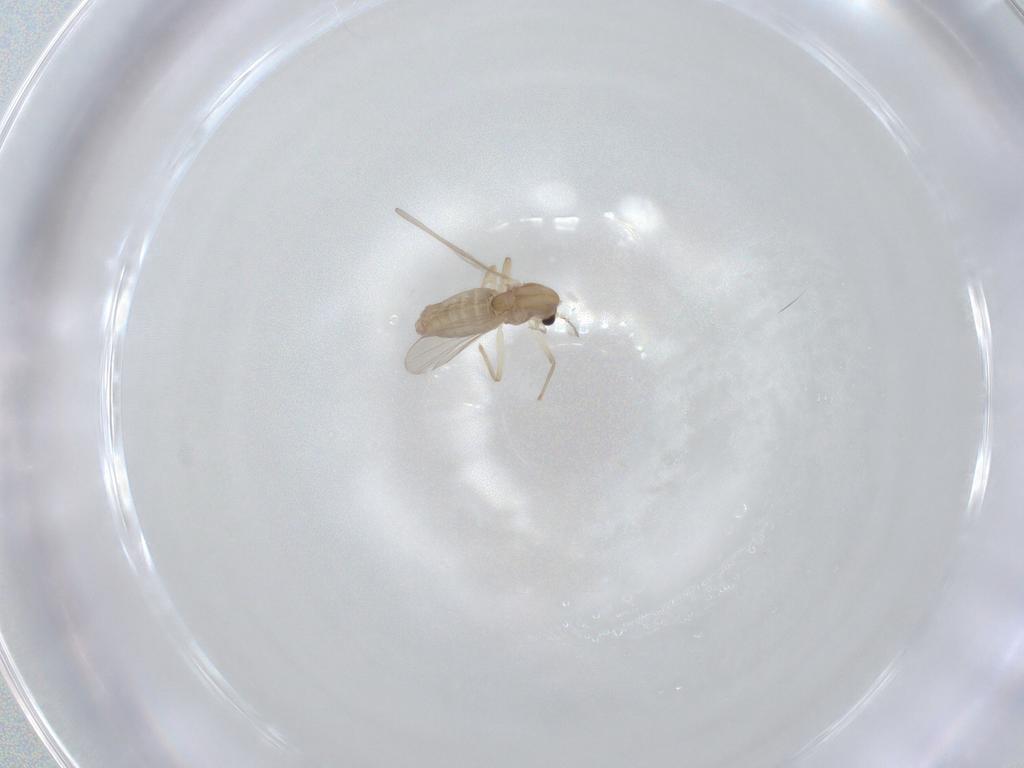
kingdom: Animalia
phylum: Arthropoda
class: Insecta
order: Diptera
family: Chironomidae
